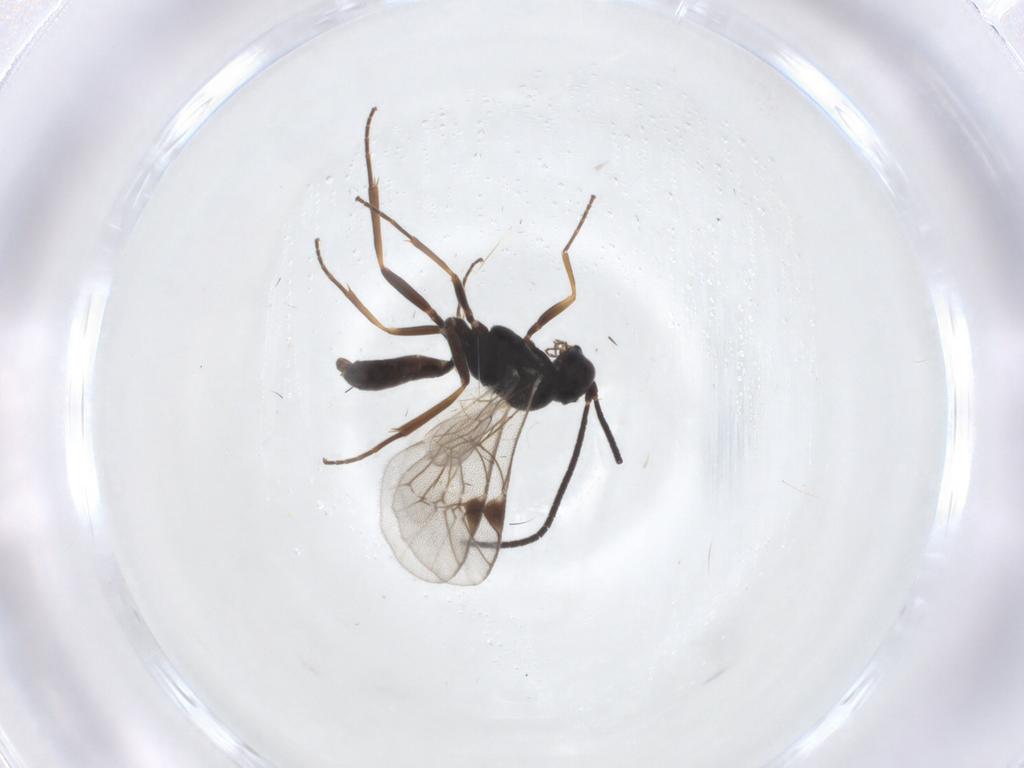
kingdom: Animalia
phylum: Arthropoda
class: Insecta
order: Hymenoptera
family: Ichneumonidae
